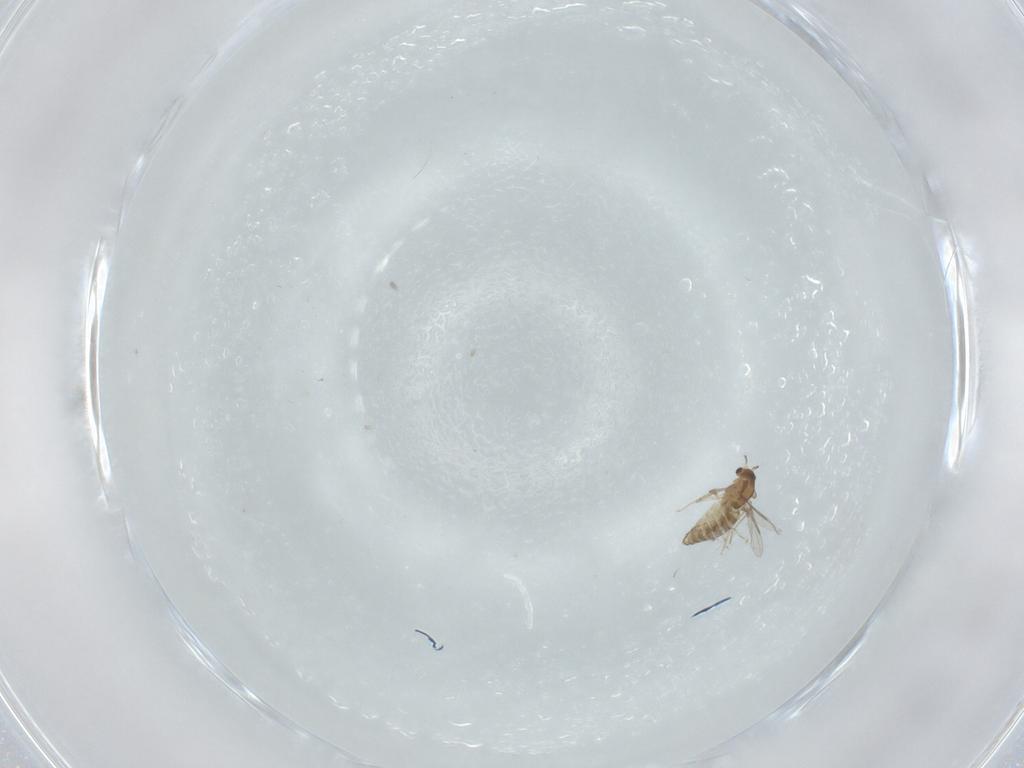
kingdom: Animalia
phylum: Arthropoda
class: Insecta
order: Diptera
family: Chironomidae
